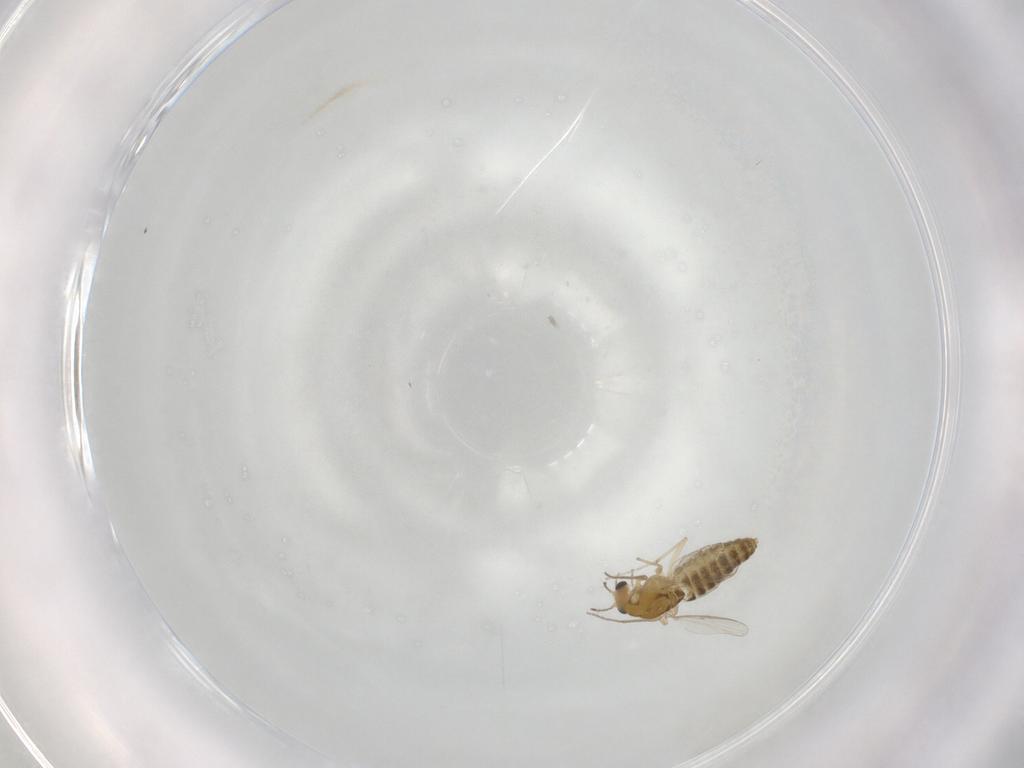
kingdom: Animalia
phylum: Arthropoda
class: Insecta
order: Diptera
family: Chironomidae
